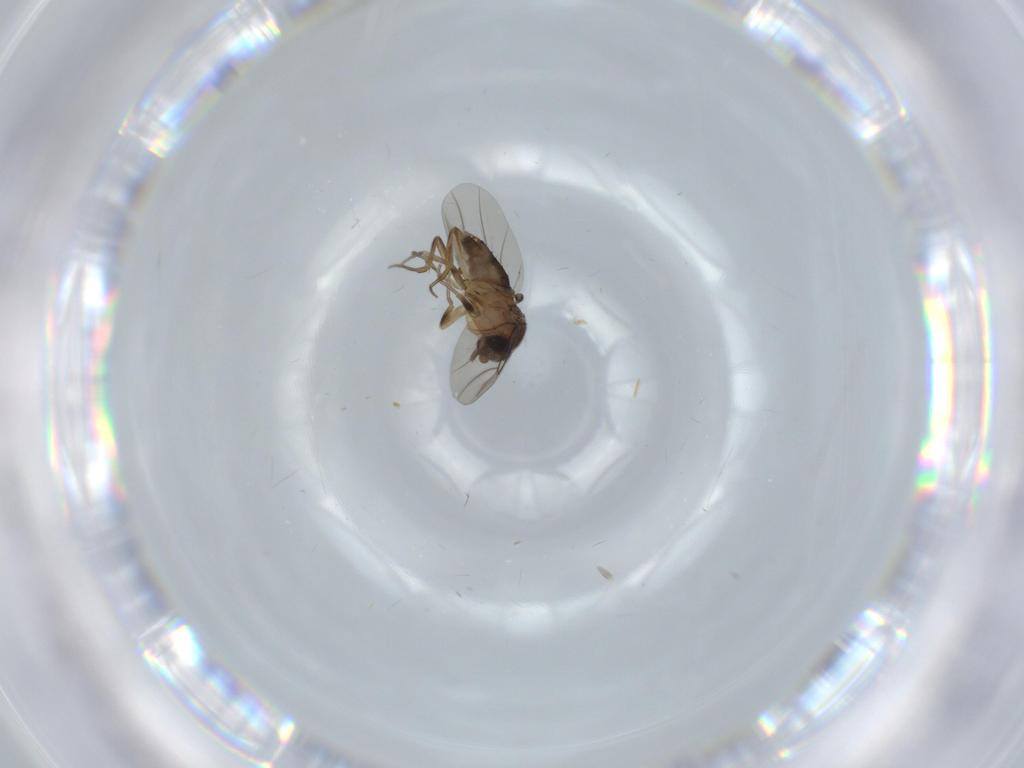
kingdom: Animalia
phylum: Arthropoda
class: Insecta
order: Diptera
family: Phoridae
